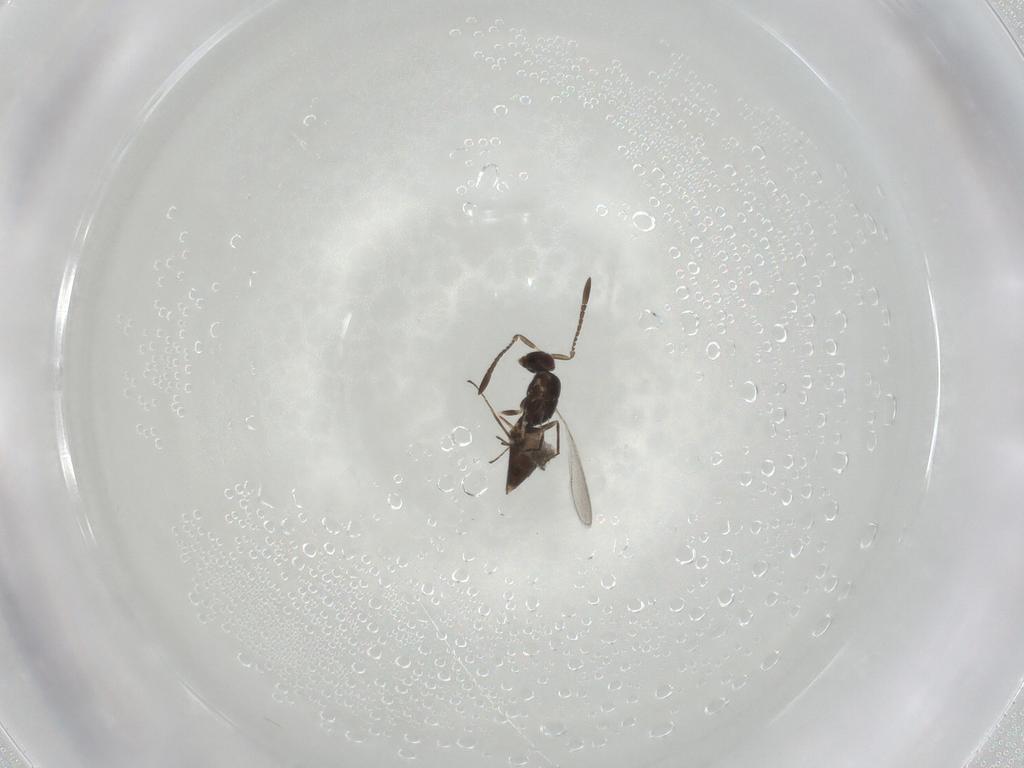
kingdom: Animalia
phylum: Arthropoda
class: Insecta
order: Hymenoptera
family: Mymaridae
